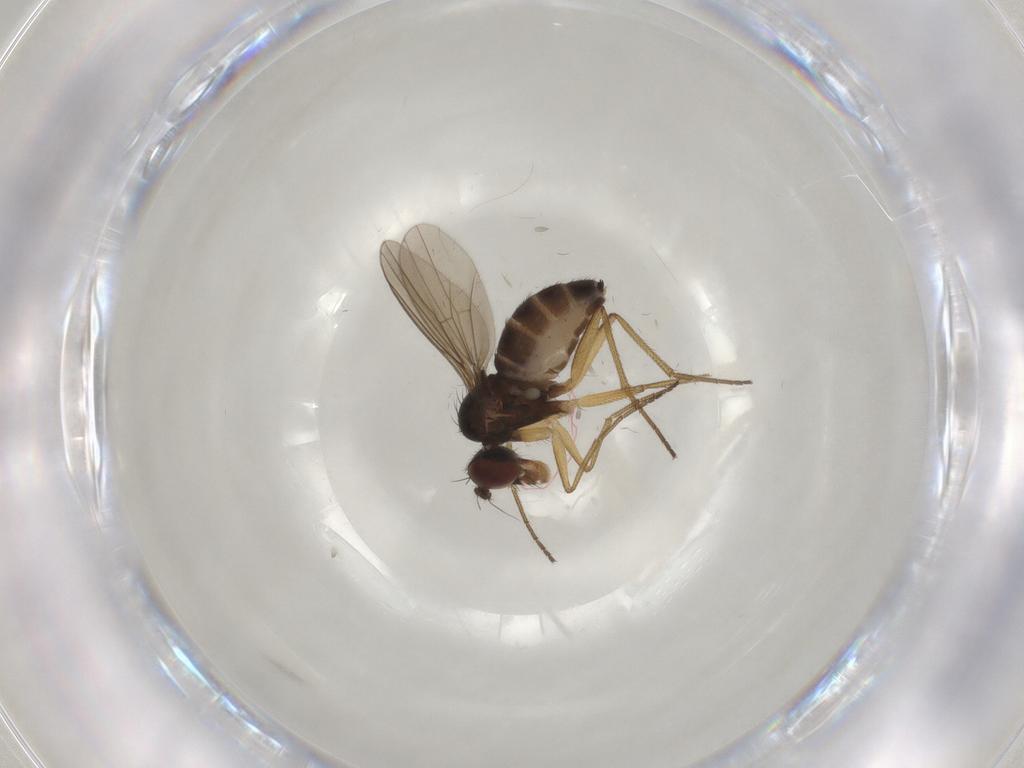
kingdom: Animalia
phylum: Arthropoda
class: Insecta
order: Diptera
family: Dolichopodidae
